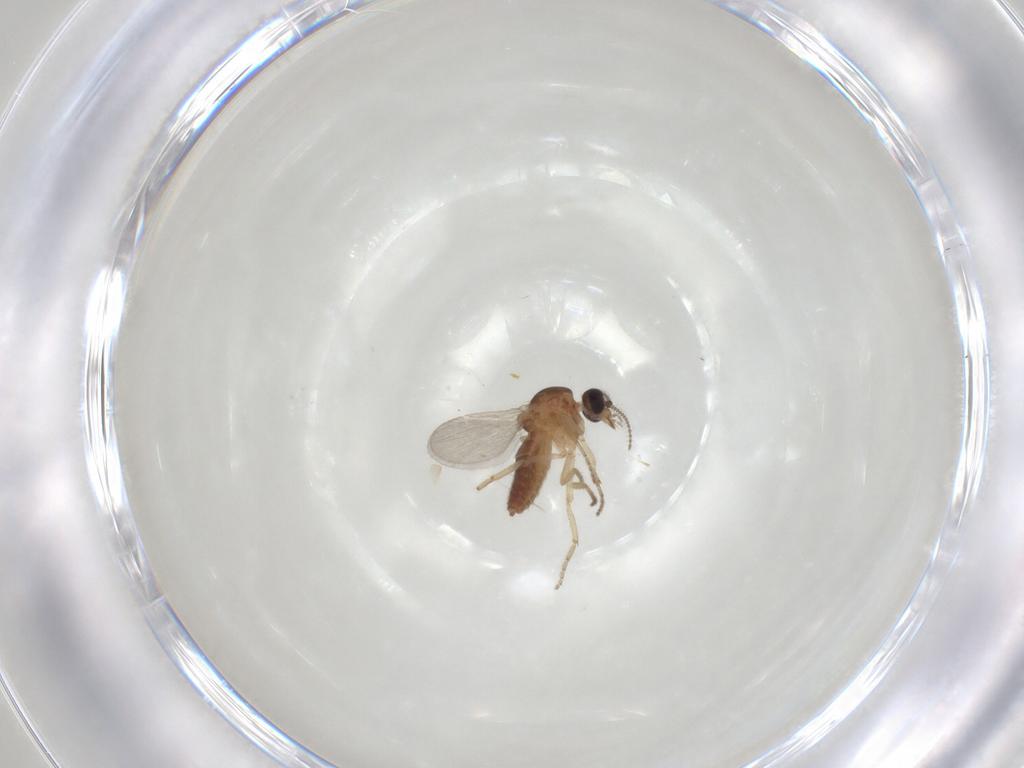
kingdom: Animalia
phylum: Arthropoda
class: Insecta
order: Diptera
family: Ceratopogonidae
